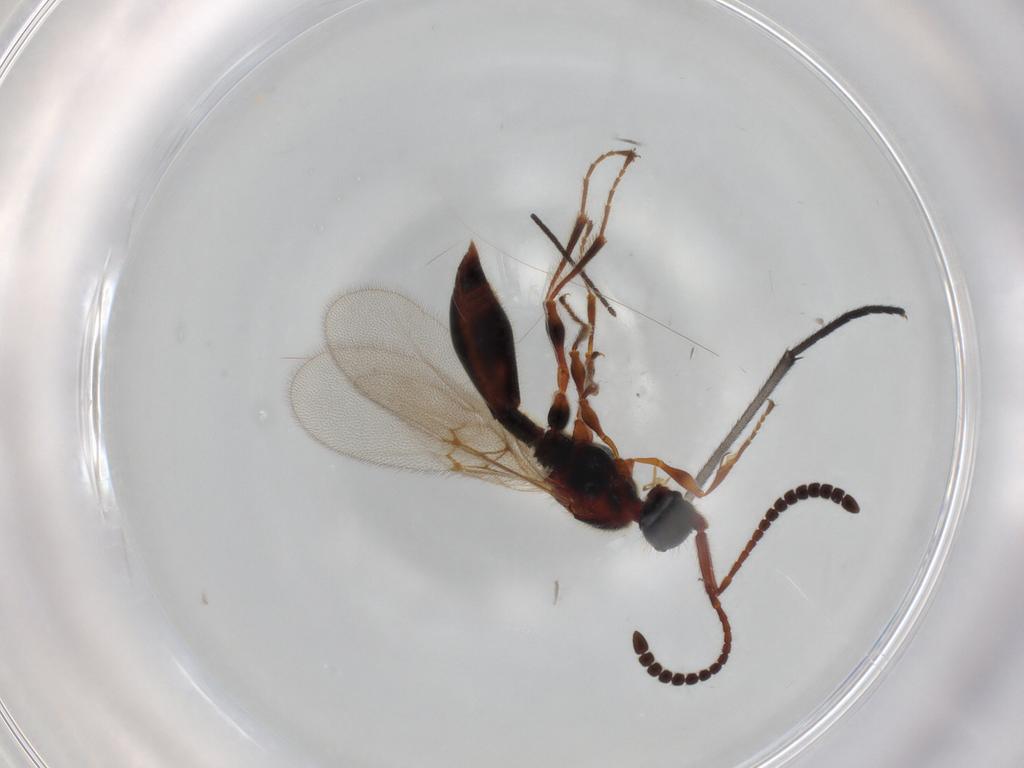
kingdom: Animalia
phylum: Arthropoda
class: Insecta
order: Hymenoptera
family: Diapriidae
